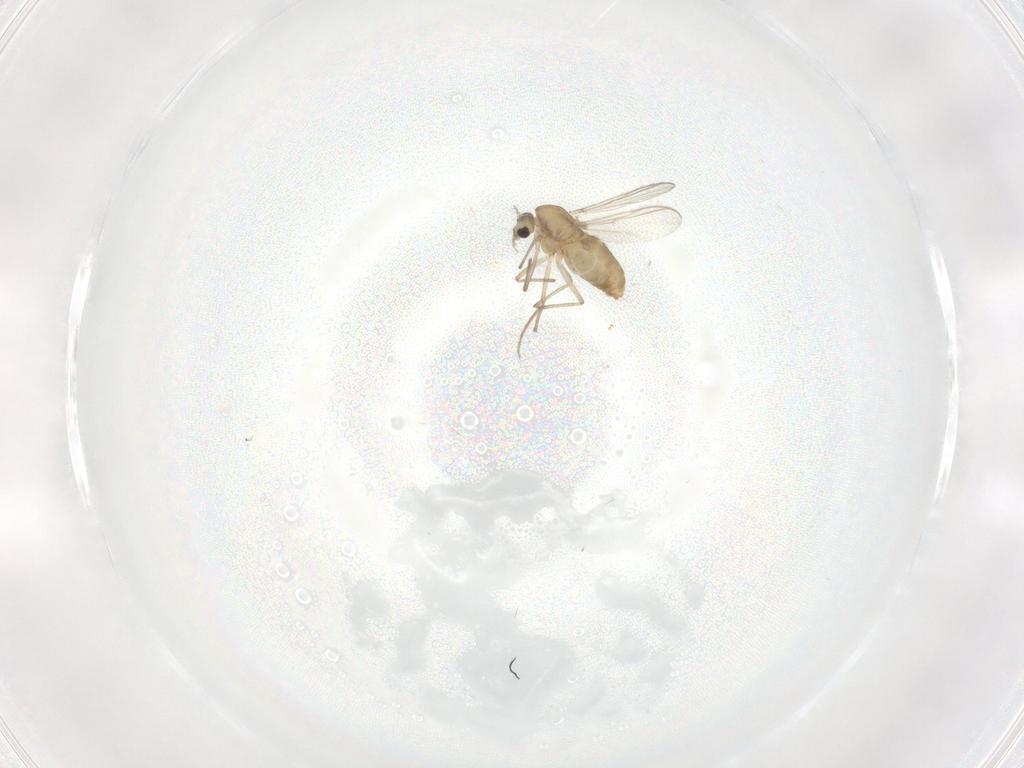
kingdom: Animalia
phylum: Arthropoda
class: Insecta
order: Diptera
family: Chironomidae
